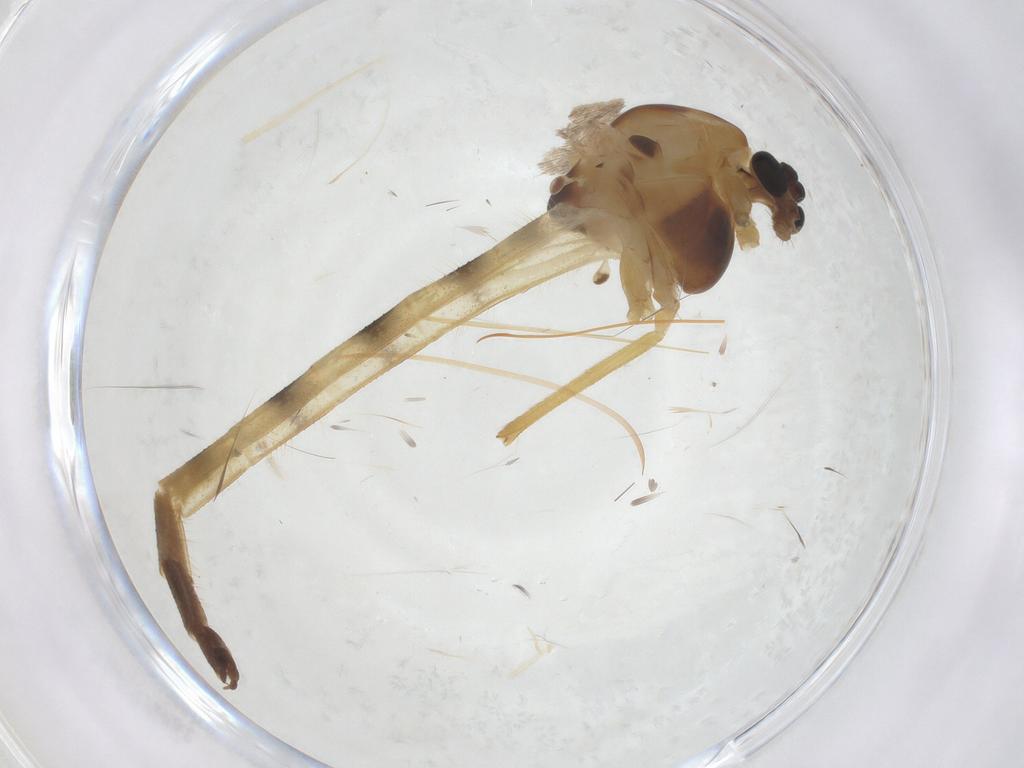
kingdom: Animalia
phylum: Arthropoda
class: Insecta
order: Diptera
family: Chironomidae
